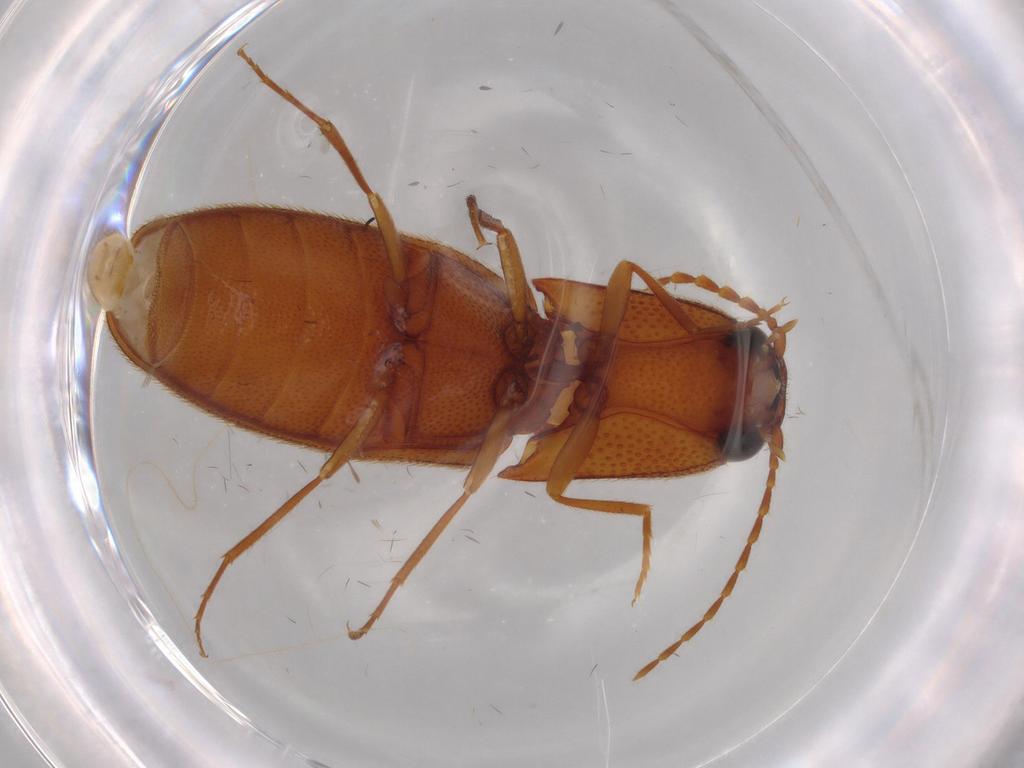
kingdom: Animalia
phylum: Arthropoda
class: Insecta
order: Coleoptera
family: Elateridae
